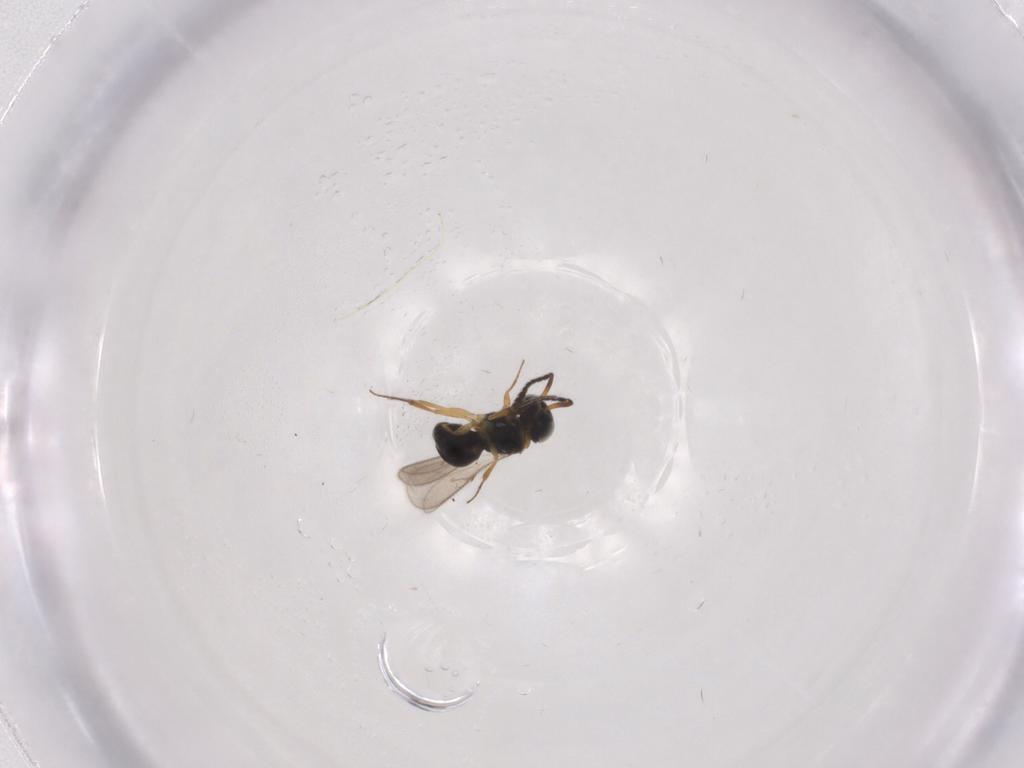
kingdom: Animalia
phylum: Arthropoda
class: Insecta
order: Hymenoptera
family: Scelionidae
